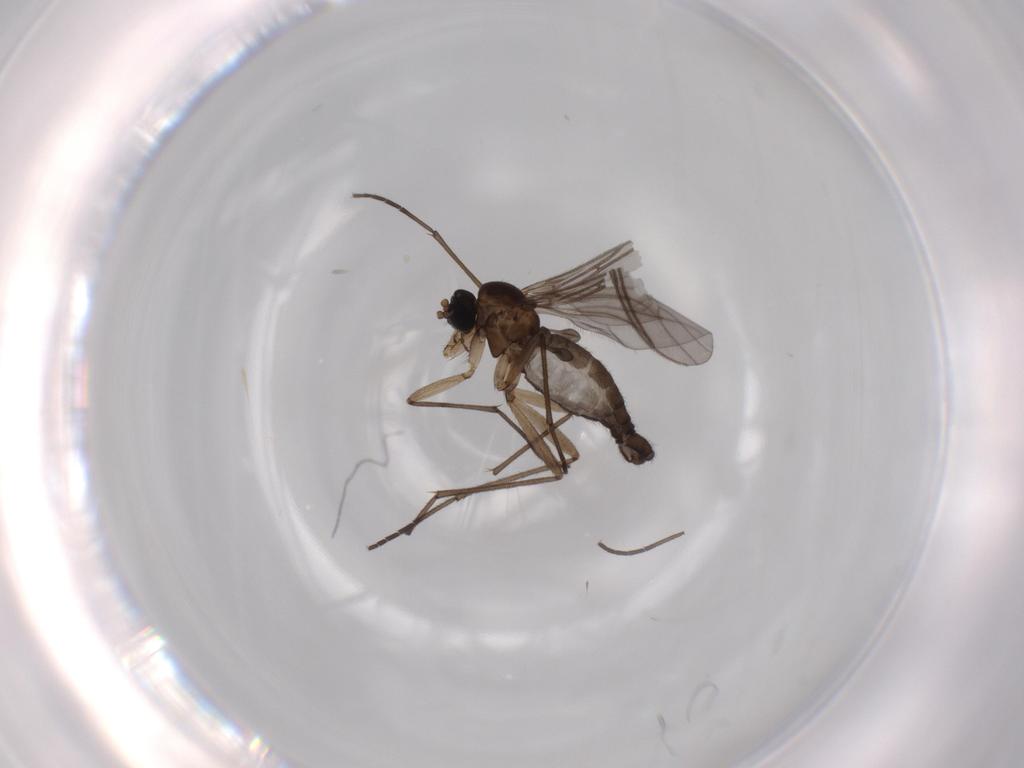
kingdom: Animalia
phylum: Arthropoda
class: Insecta
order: Diptera
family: Sciaridae
